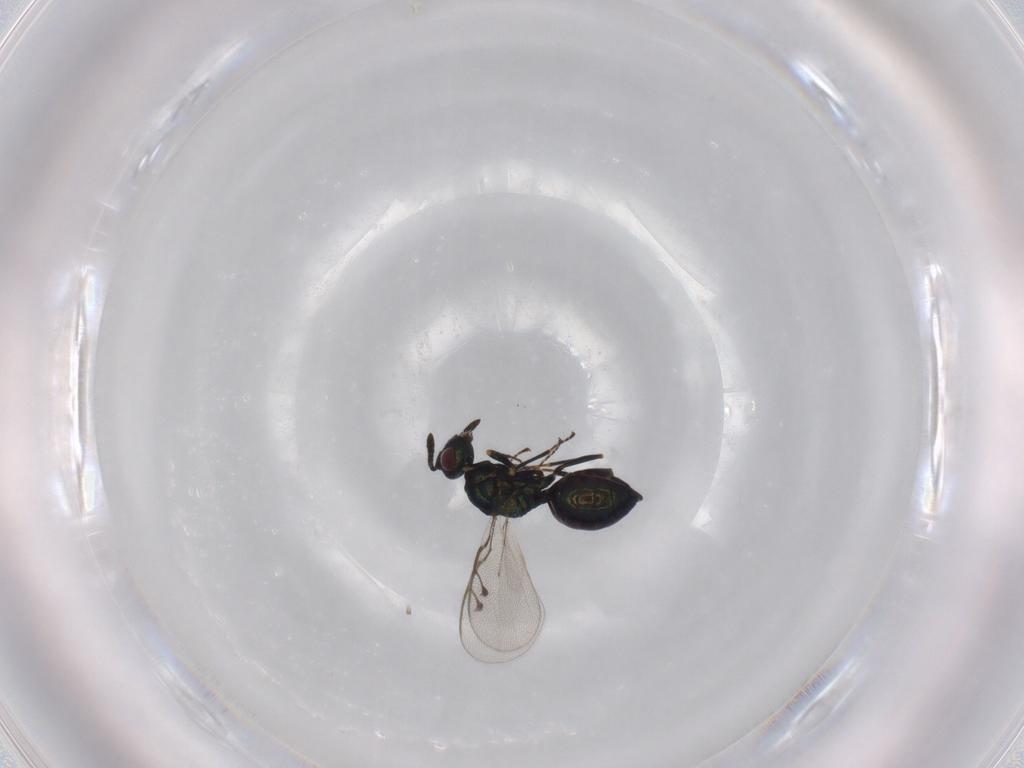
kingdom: Animalia
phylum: Arthropoda
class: Insecta
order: Hymenoptera
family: Pteromalidae
